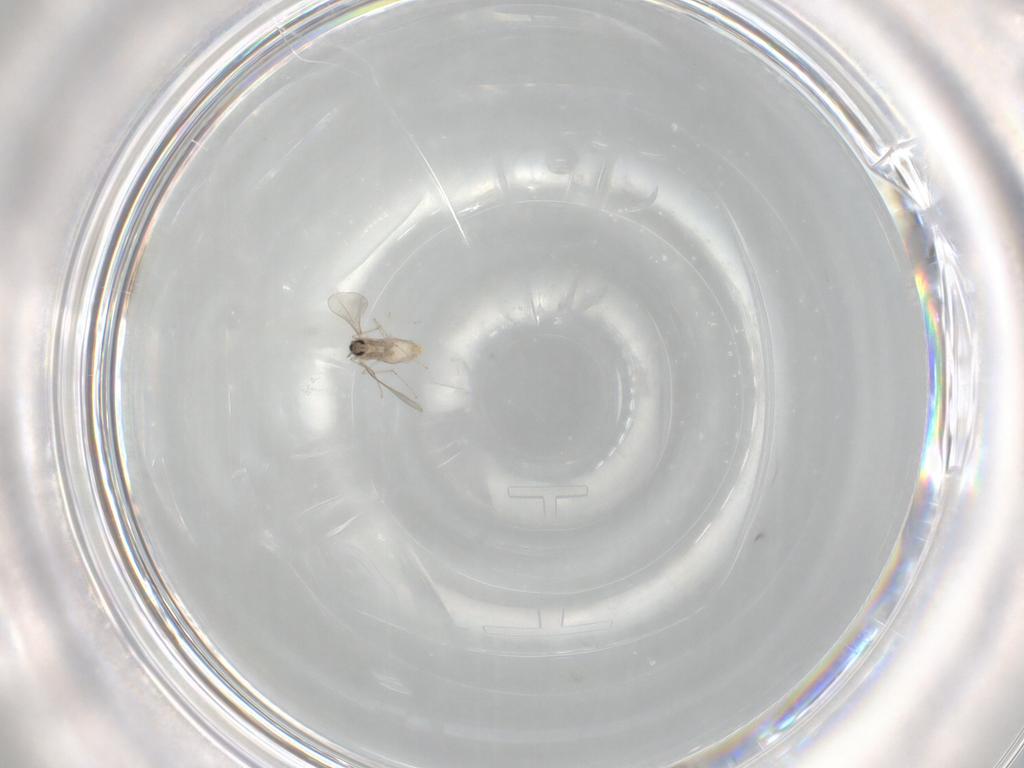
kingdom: Animalia
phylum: Arthropoda
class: Insecta
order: Diptera
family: Cecidomyiidae
